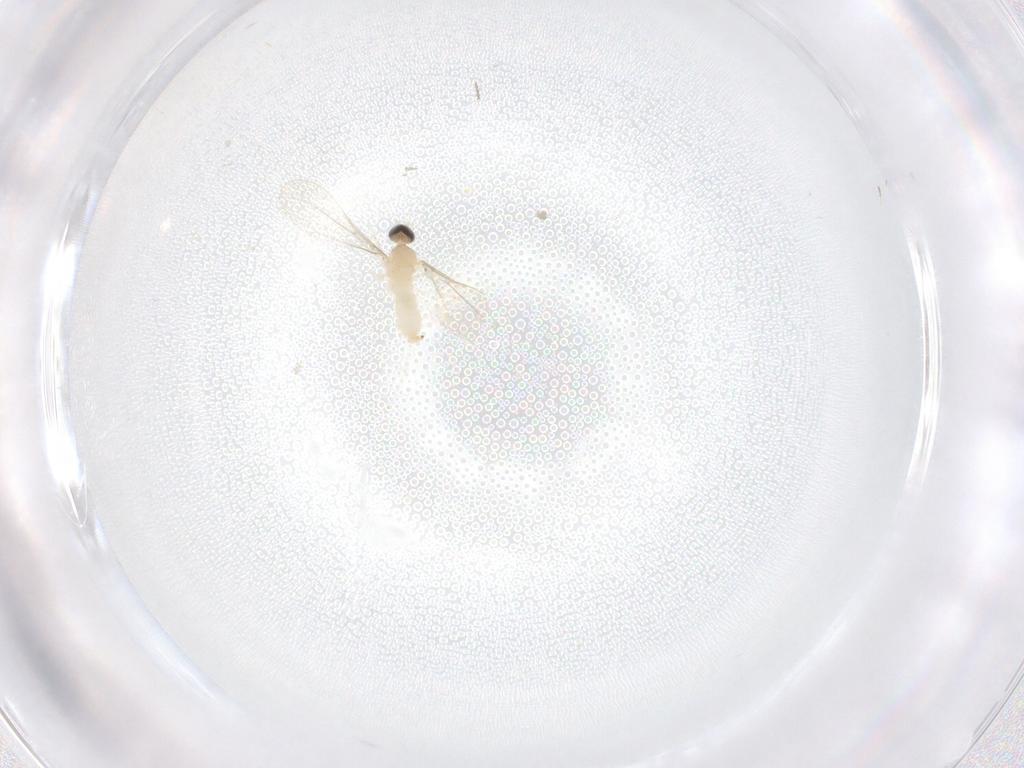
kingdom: Animalia
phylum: Arthropoda
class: Insecta
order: Diptera
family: Cecidomyiidae
